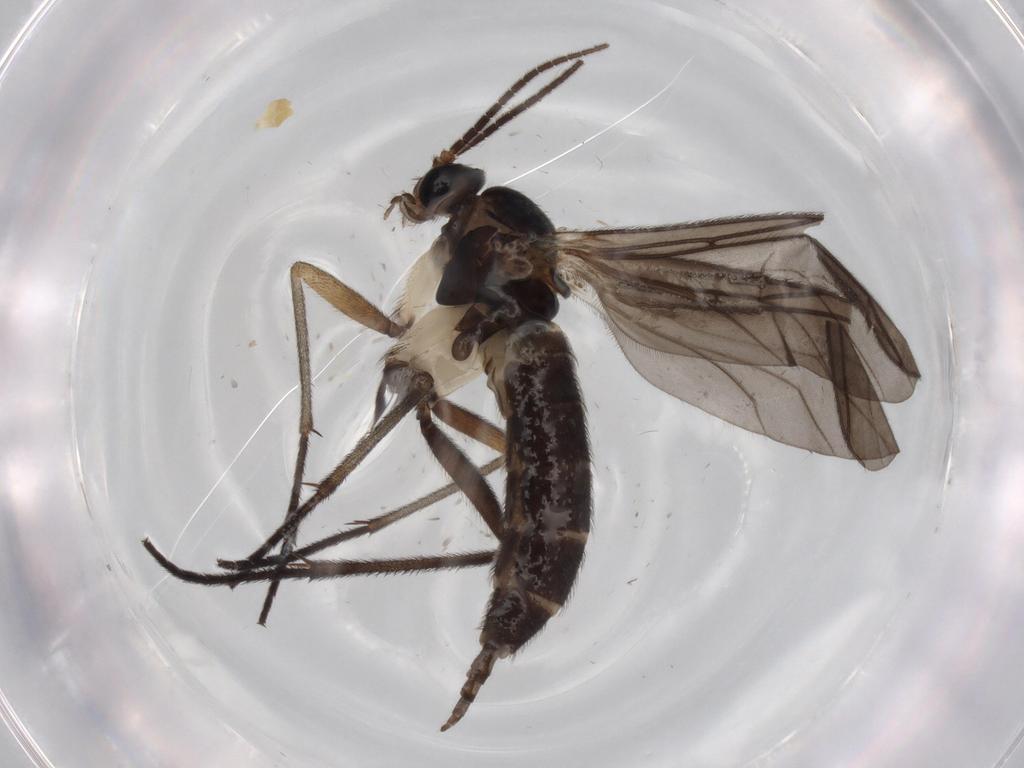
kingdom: Animalia
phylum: Arthropoda
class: Insecta
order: Diptera
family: Sciaridae
